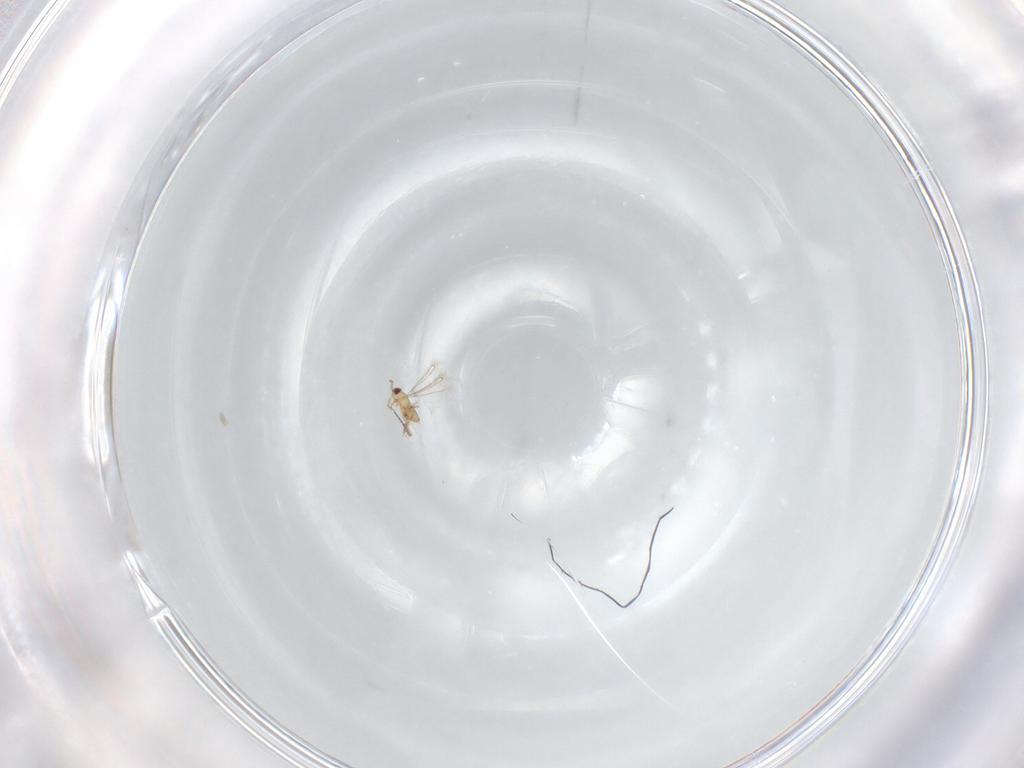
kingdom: Animalia
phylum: Arthropoda
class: Insecta
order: Hymenoptera
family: Mymaridae
